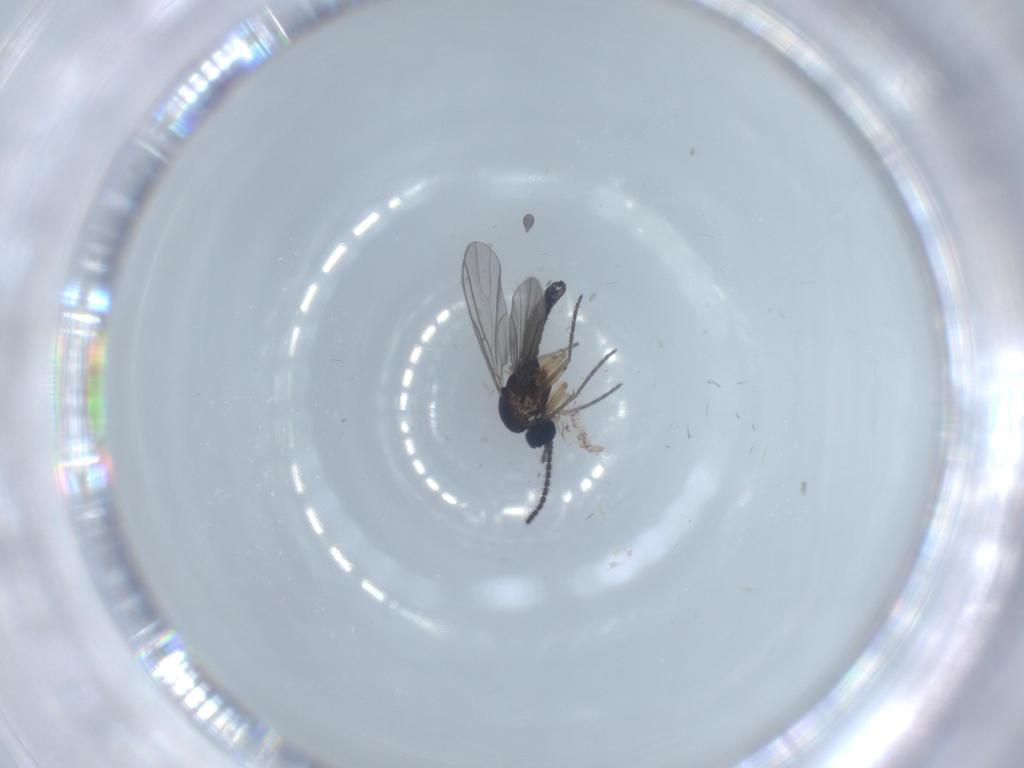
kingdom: Animalia
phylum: Arthropoda
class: Insecta
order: Diptera
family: Sciaridae
